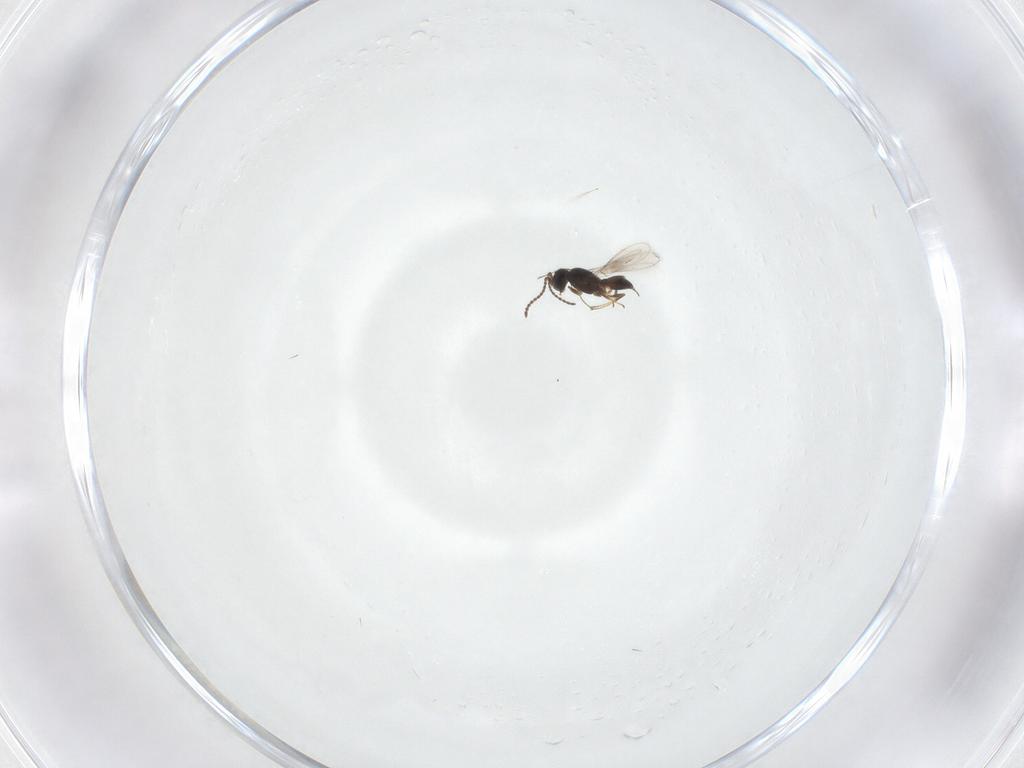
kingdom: Animalia
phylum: Arthropoda
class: Insecta
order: Hymenoptera
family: Scelionidae
